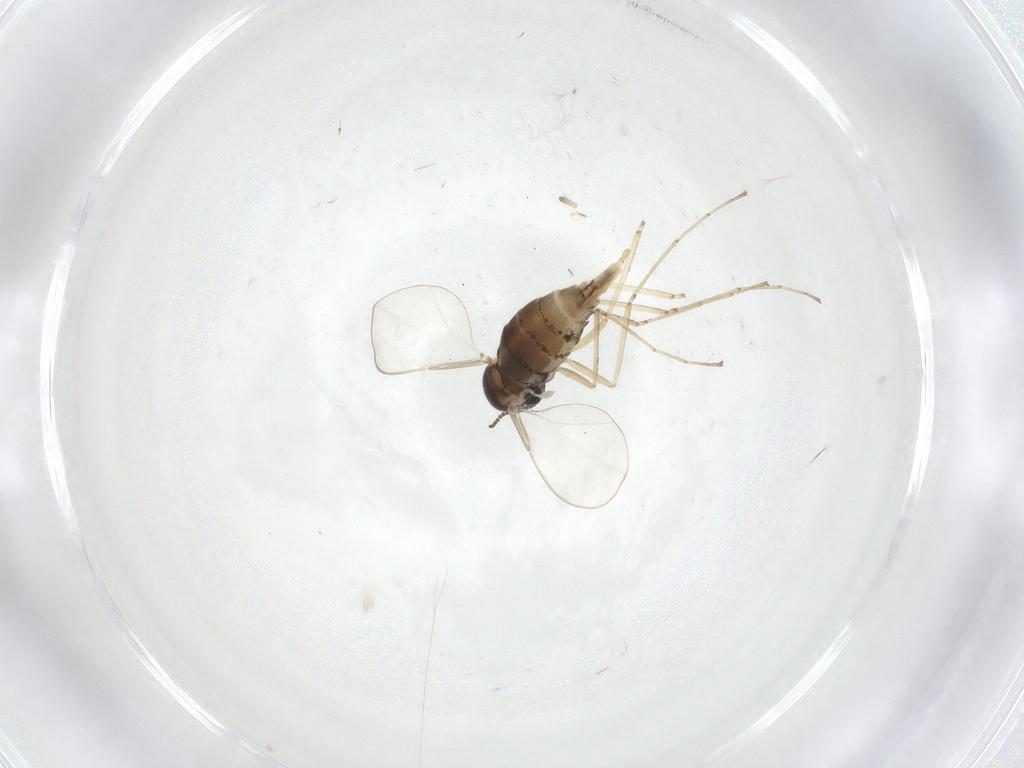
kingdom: Animalia
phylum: Arthropoda
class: Insecta
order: Diptera
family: Sciaridae
